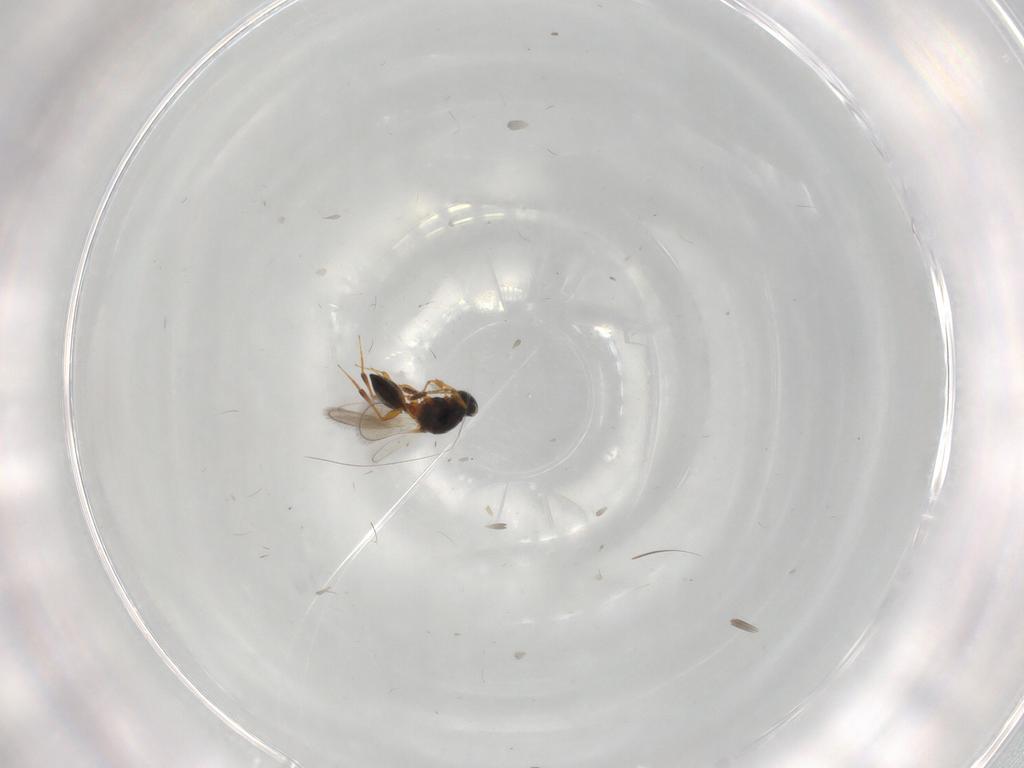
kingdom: Animalia
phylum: Arthropoda
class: Insecta
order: Hymenoptera
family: Platygastridae
